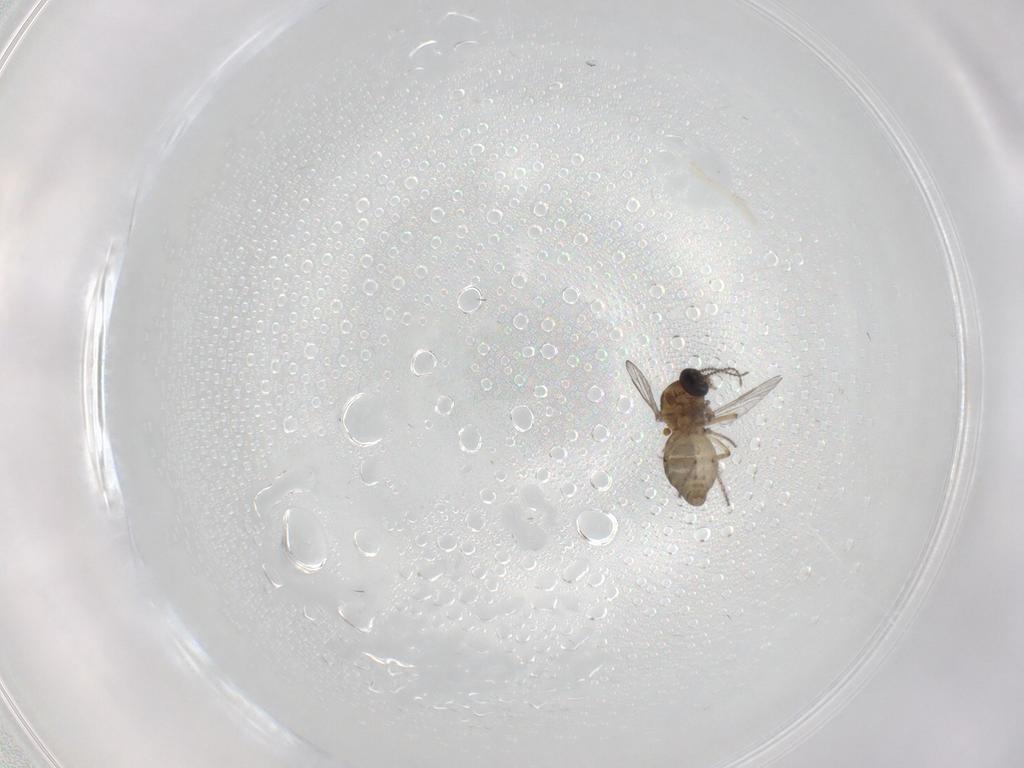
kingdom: Animalia
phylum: Arthropoda
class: Insecta
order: Diptera
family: Ceratopogonidae
